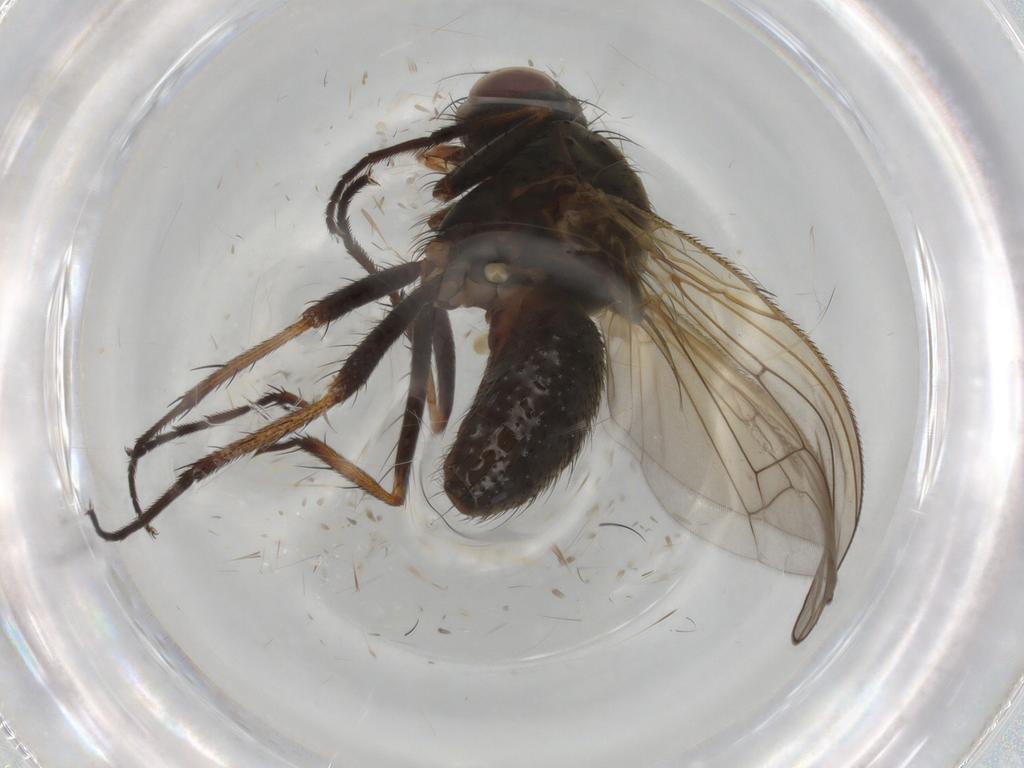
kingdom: Animalia
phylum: Arthropoda
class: Insecta
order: Diptera
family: Anthomyiidae
